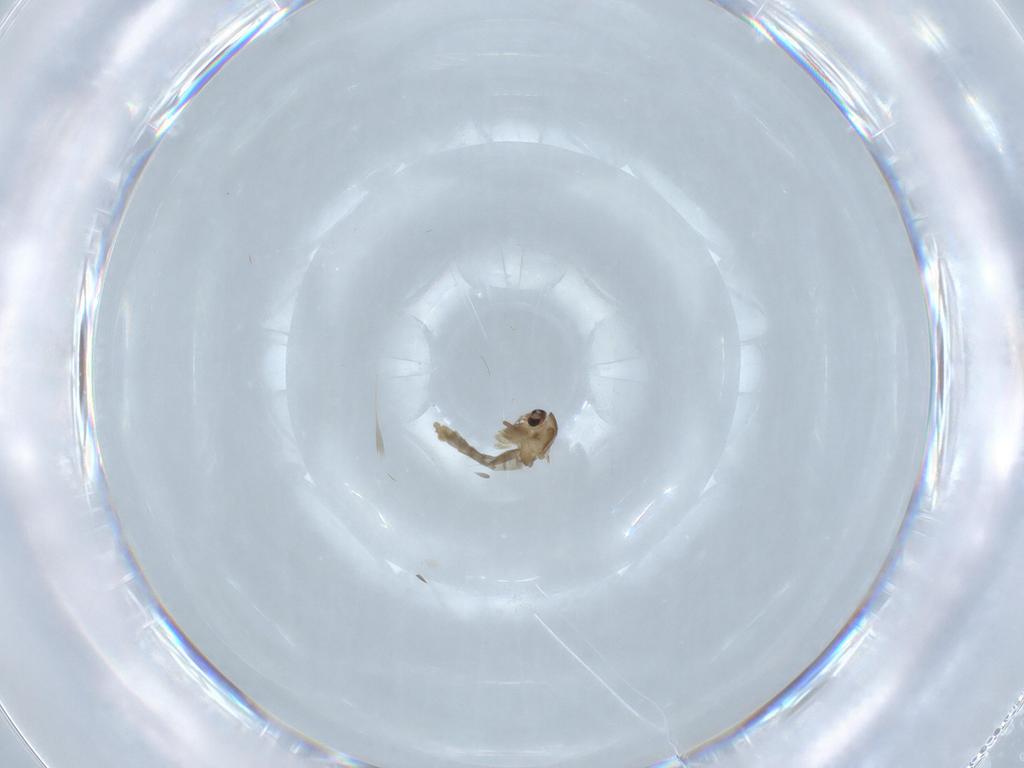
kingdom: Animalia
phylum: Arthropoda
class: Insecta
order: Diptera
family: Chironomidae
